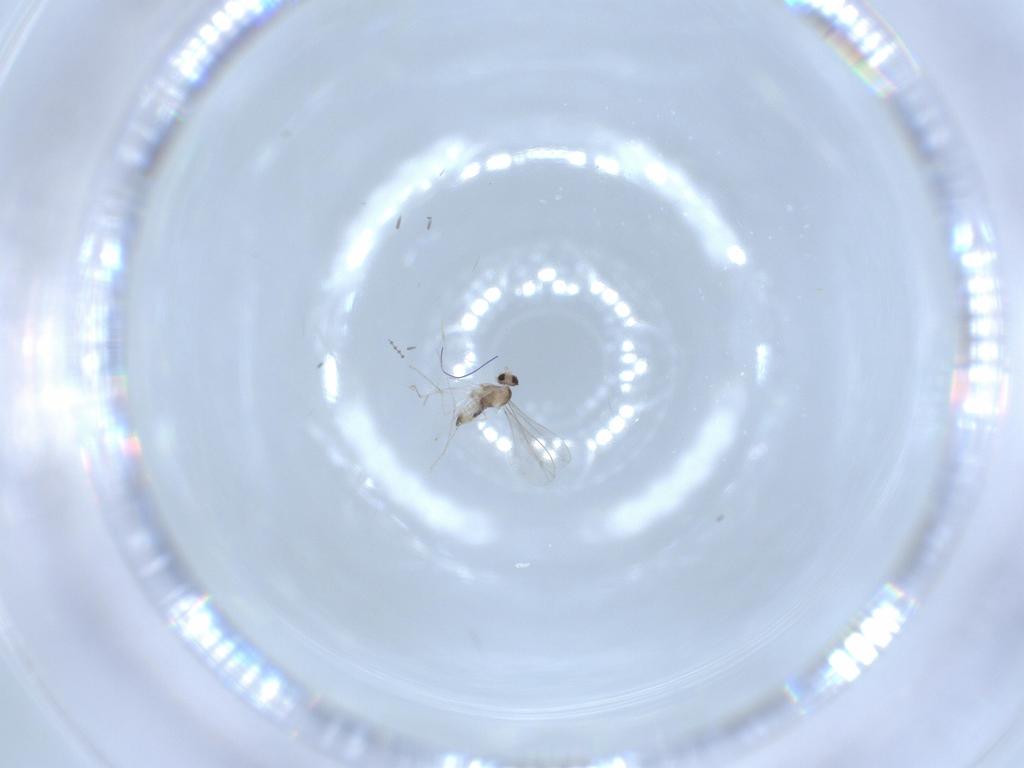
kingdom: Animalia
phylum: Arthropoda
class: Insecta
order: Diptera
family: Cecidomyiidae
